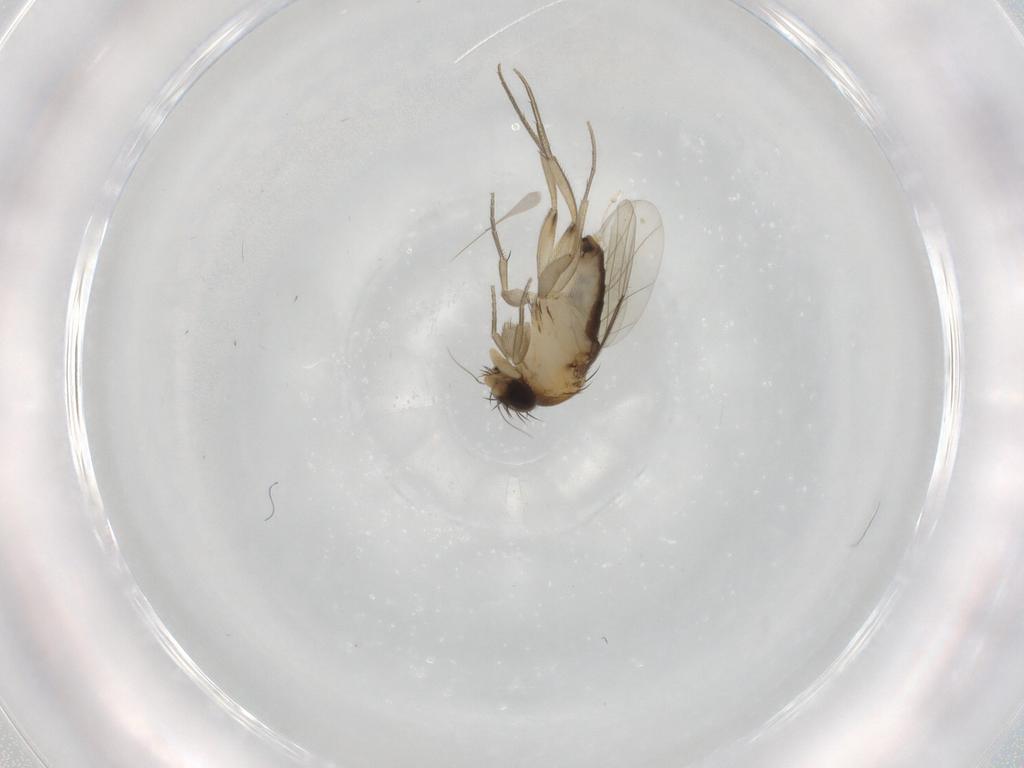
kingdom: Animalia
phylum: Arthropoda
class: Insecta
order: Diptera
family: Phoridae
